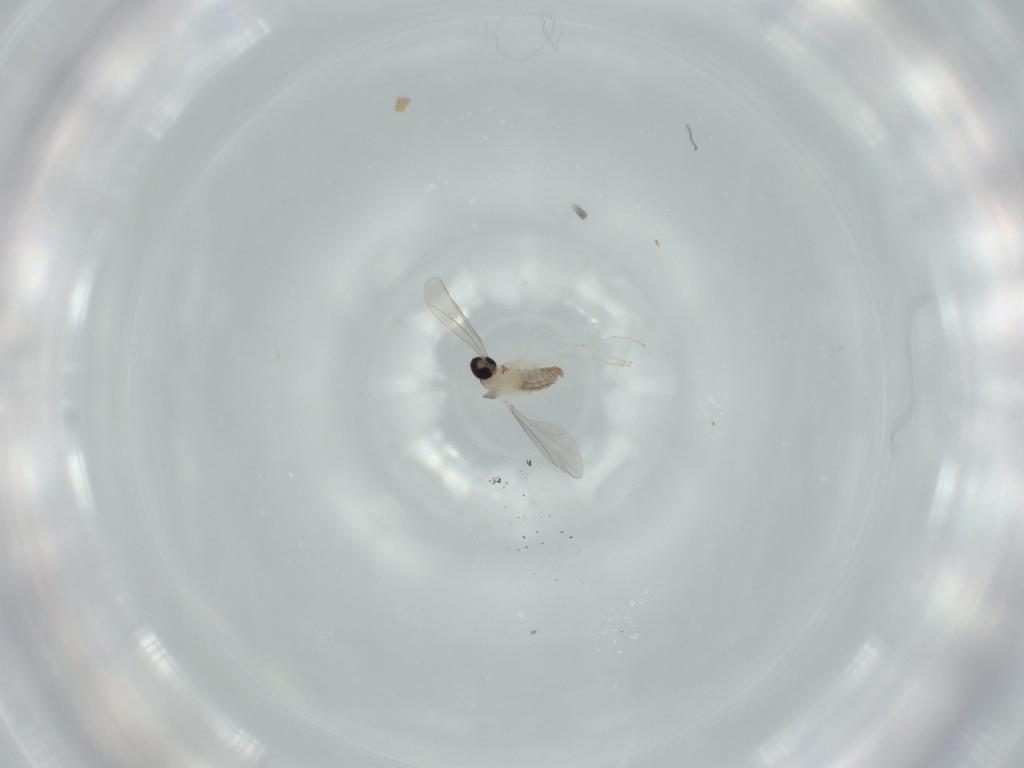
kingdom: Animalia
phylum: Arthropoda
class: Insecta
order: Diptera
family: Cecidomyiidae
